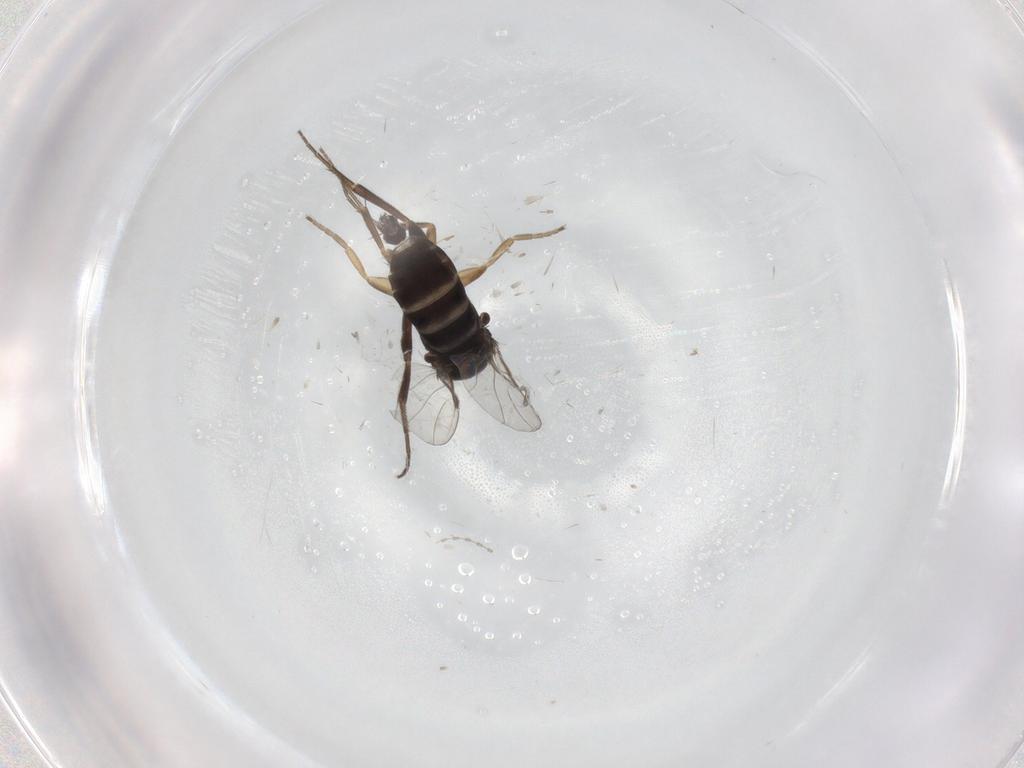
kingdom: Animalia
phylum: Arthropoda
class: Insecta
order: Diptera
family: Phoridae
